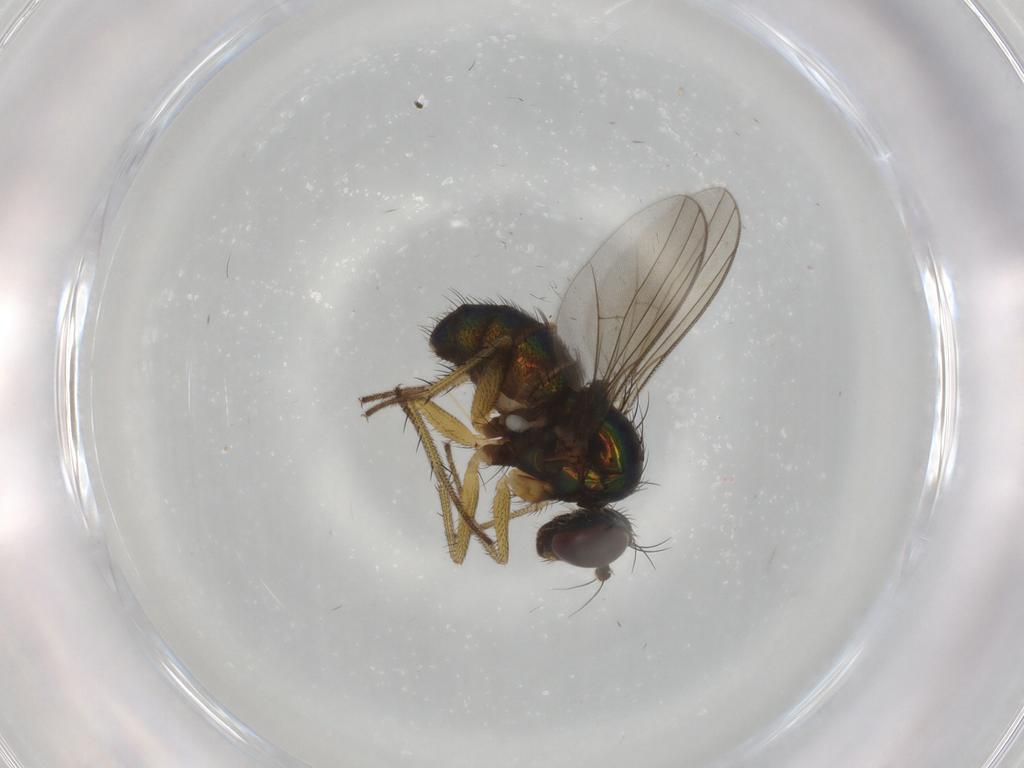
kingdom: Animalia
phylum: Arthropoda
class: Insecta
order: Diptera
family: Dolichopodidae
